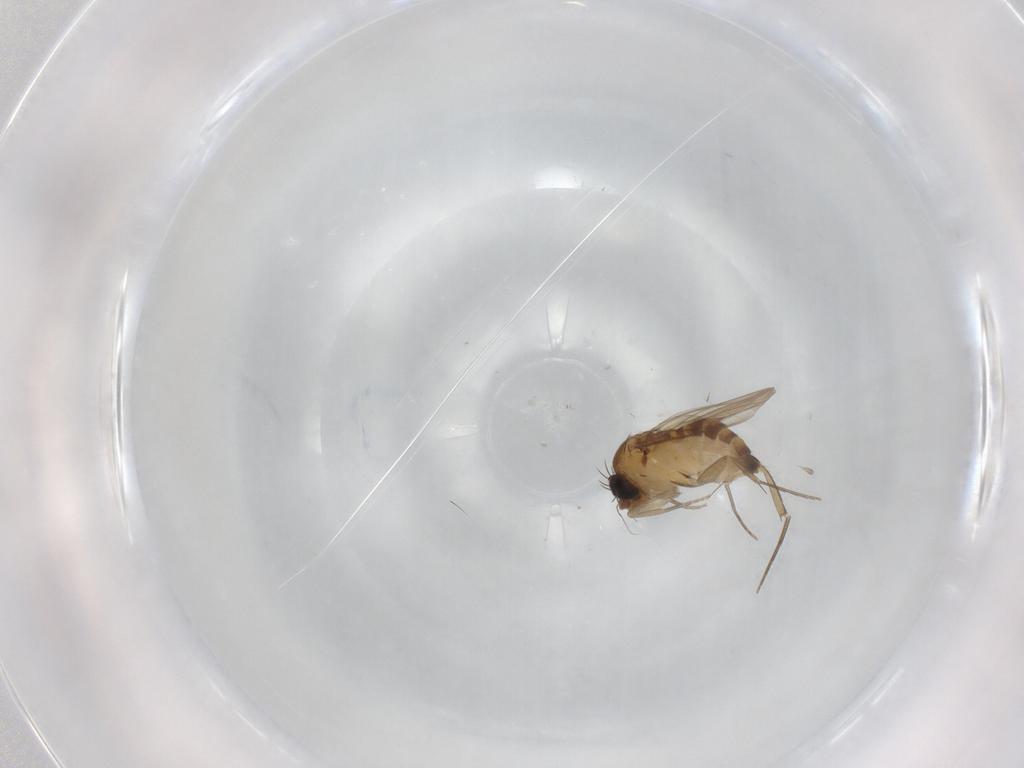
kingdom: Animalia
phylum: Arthropoda
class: Insecta
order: Diptera
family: Phoridae
